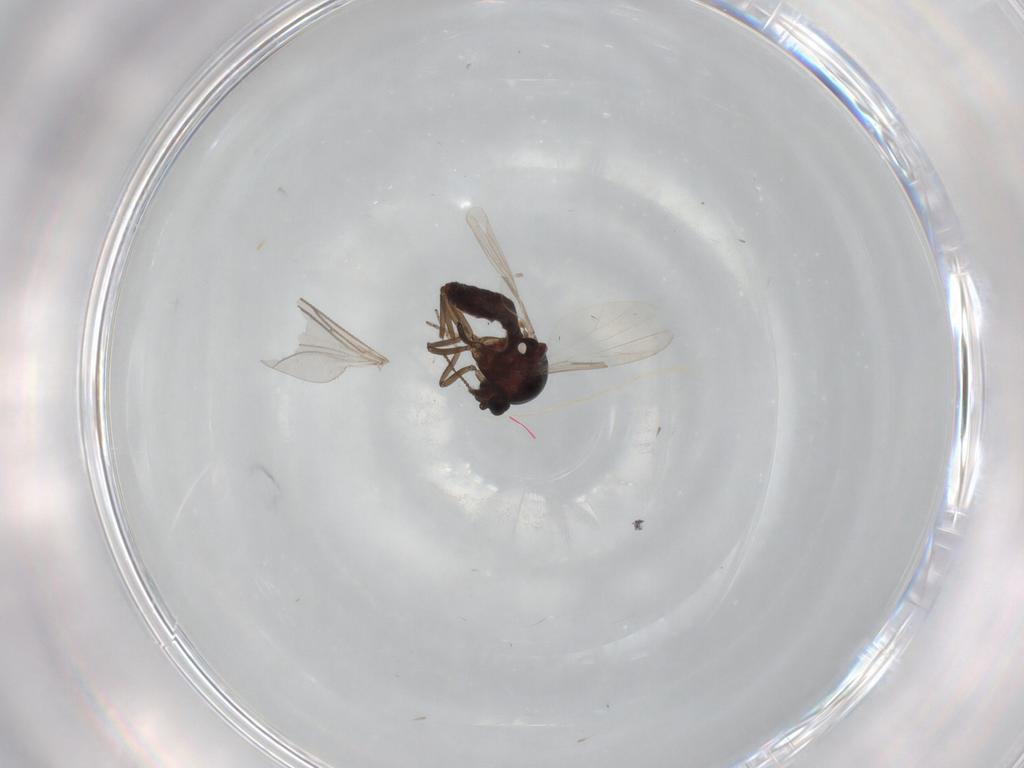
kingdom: Animalia
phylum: Arthropoda
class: Insecta
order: Diptera
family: Ceratopogonidae
